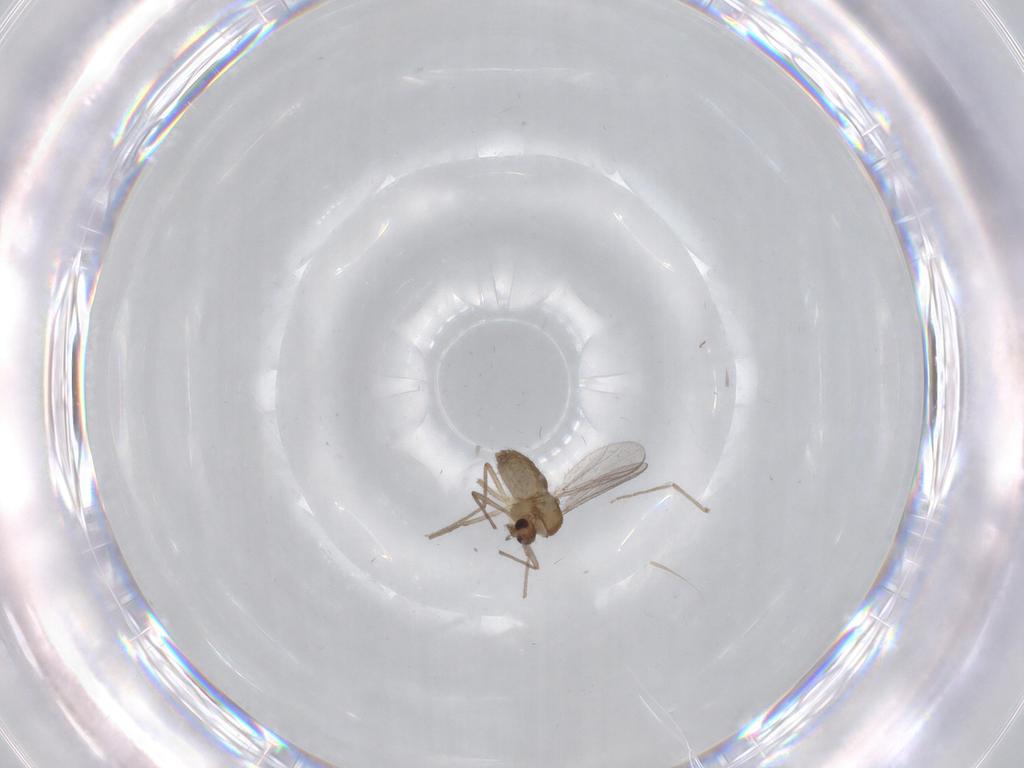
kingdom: Animalia
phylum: Arthropoda
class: Insecta
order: Diptera
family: Chironomidae
